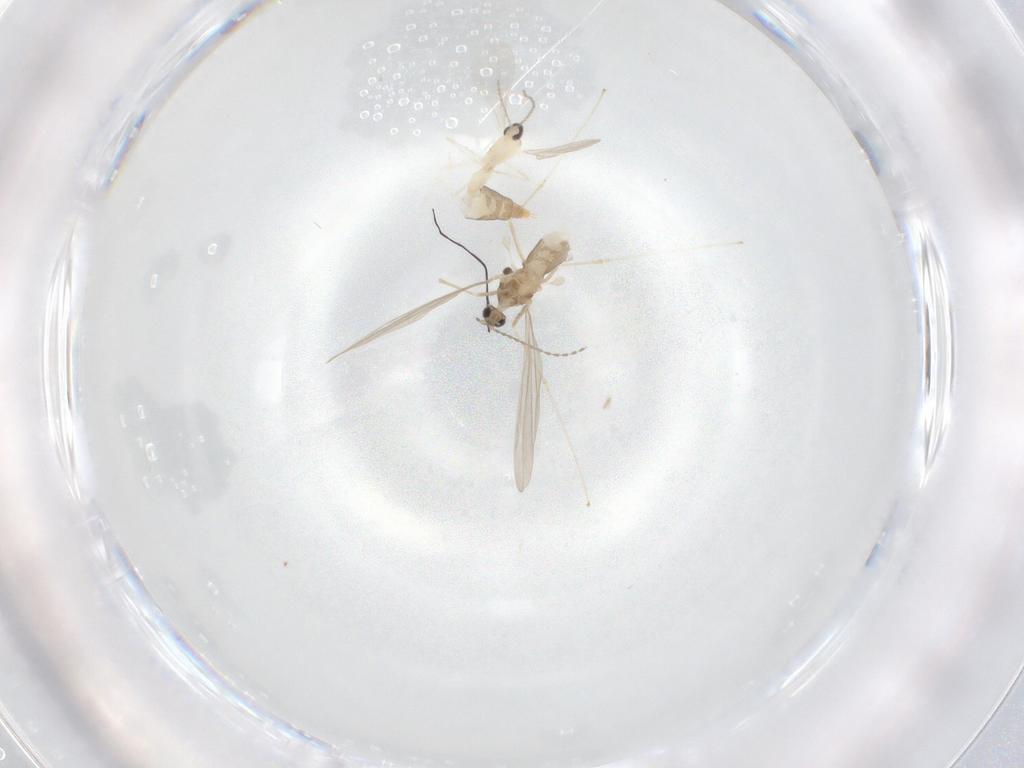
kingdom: Animalia
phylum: Arthropoda
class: Insecta
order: Diptera
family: Cecidomyiidae
